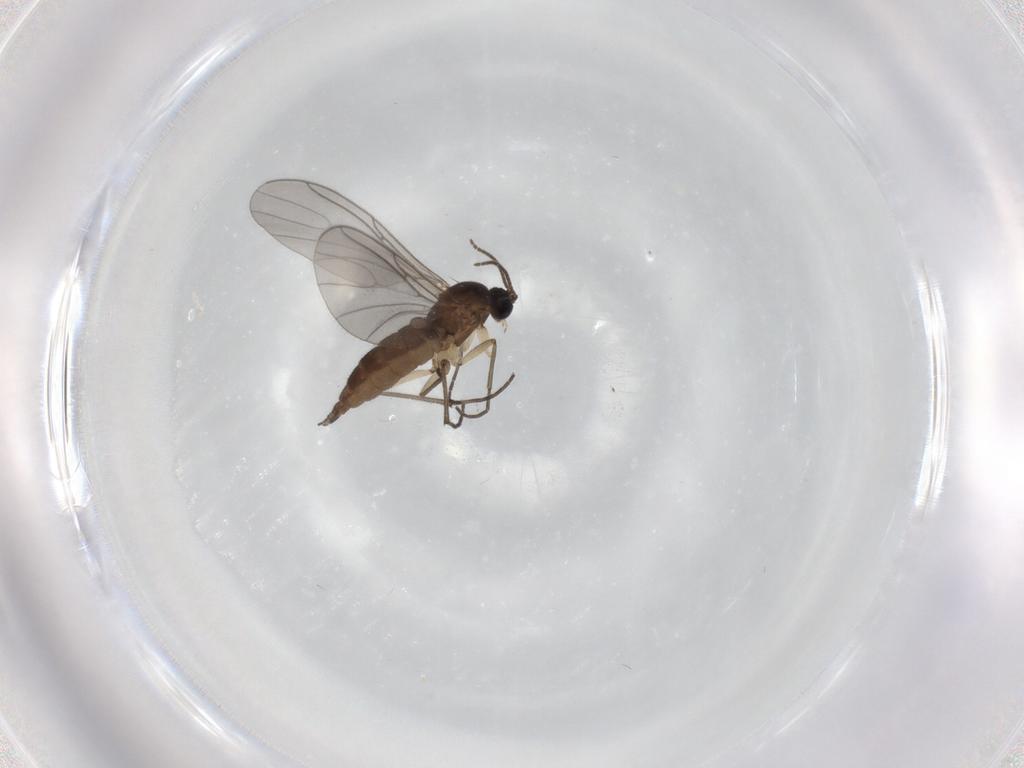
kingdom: Animalia
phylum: Arthropoda
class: Insecta
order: Diptera
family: Sciaridae
